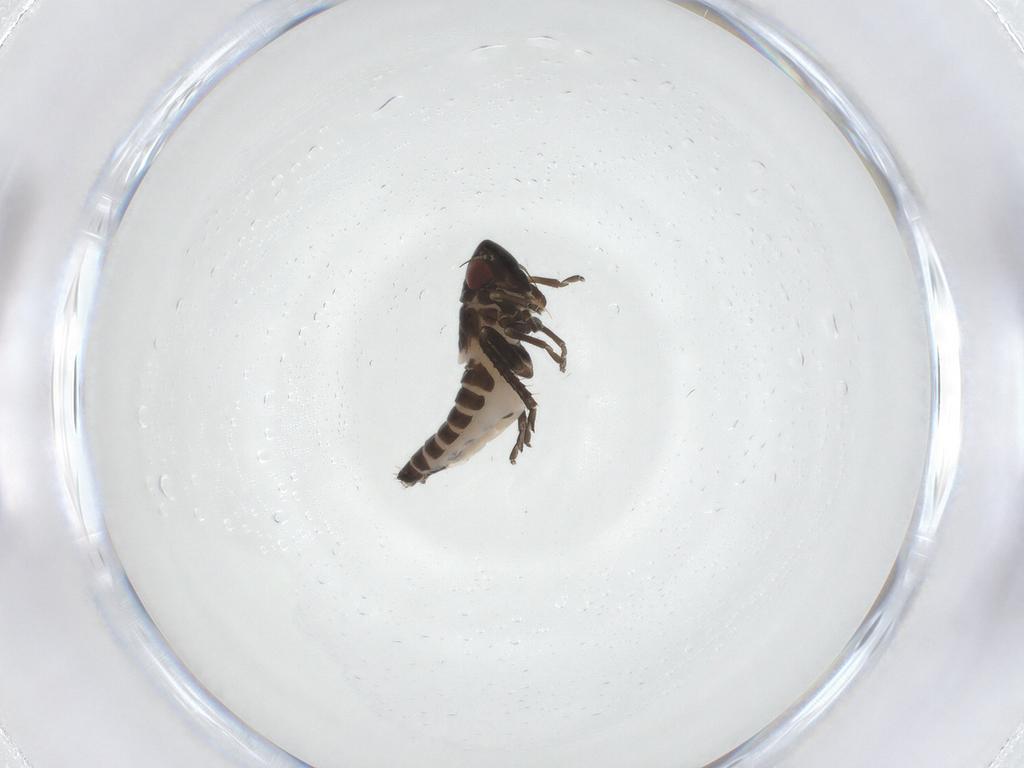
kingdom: Animalia
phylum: Arthropoda
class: Insecta
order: Hemiptera
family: Cicadellidae
